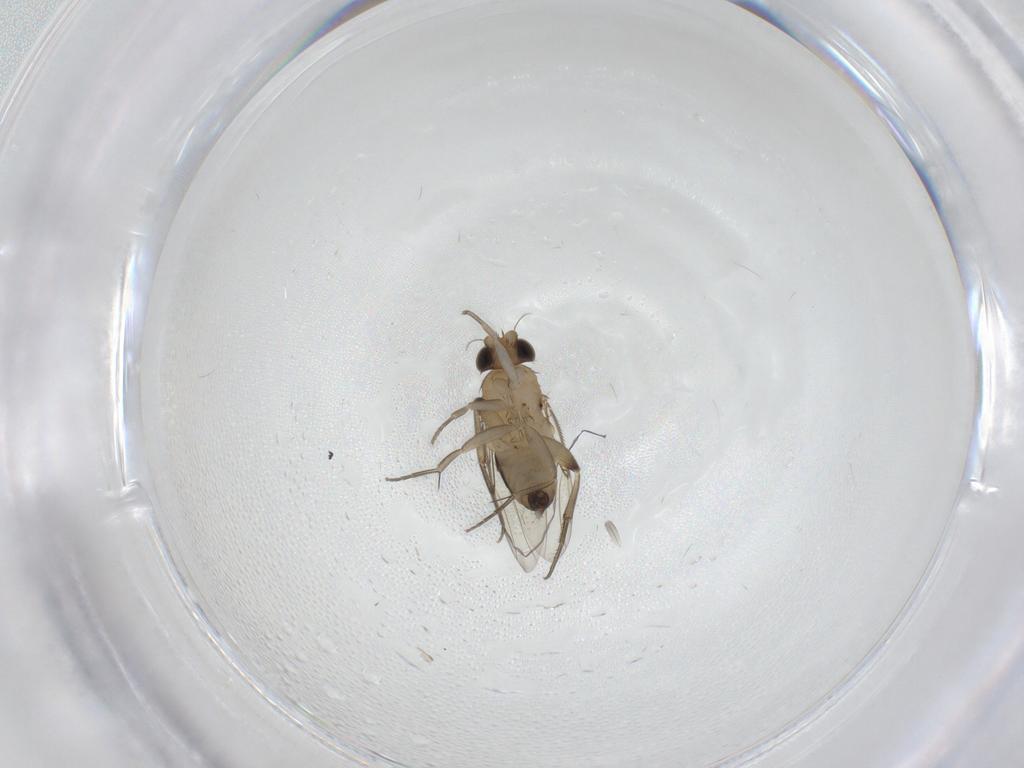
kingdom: Animalia
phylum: Arthropoda
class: Insecta
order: Diptera
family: Phoridae
